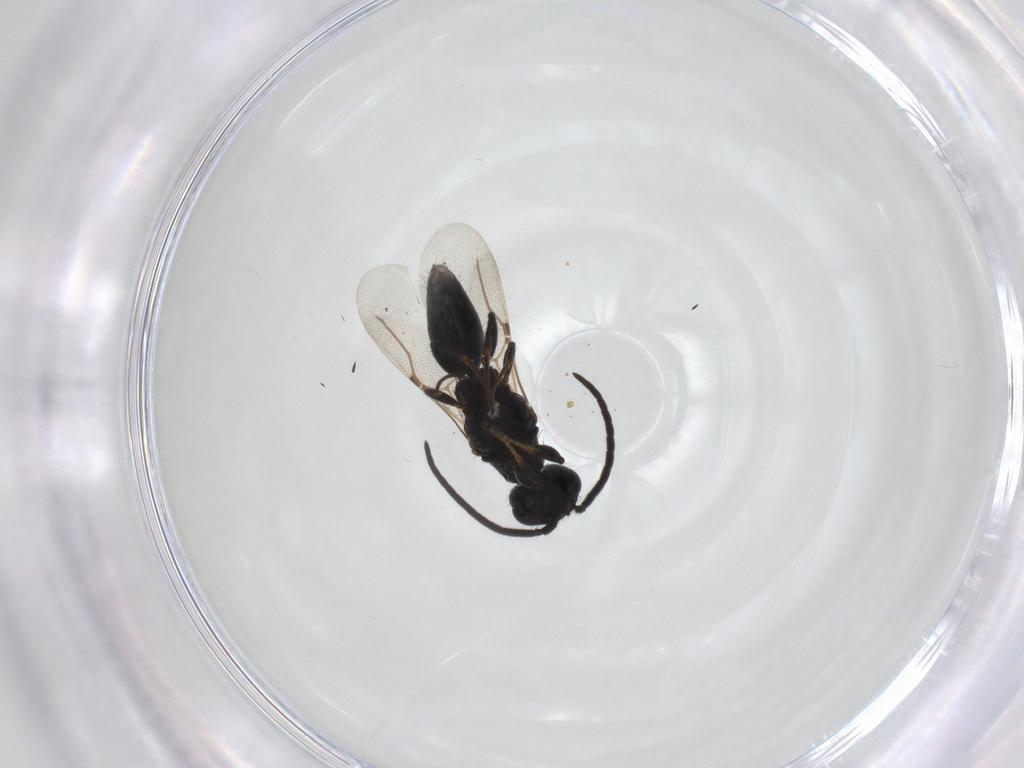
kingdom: Animalia
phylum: Arthropoda
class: Insecta
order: Hymenoptera
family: Bethylidae
